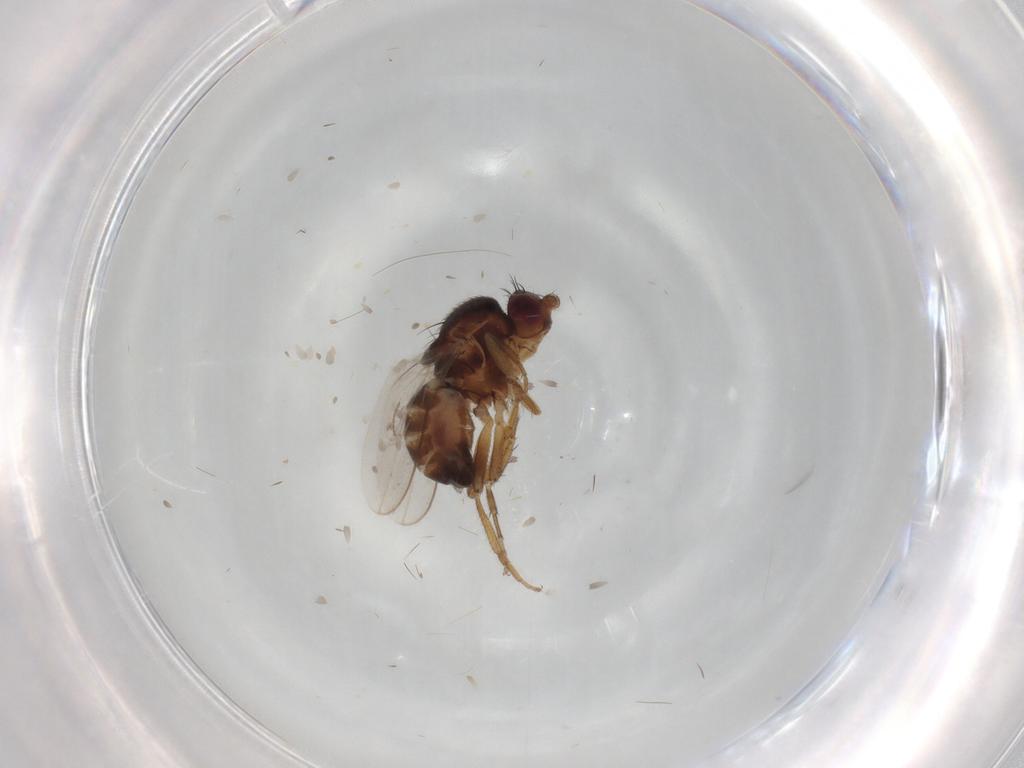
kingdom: Animalia
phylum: Arthropoda
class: Insecta
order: Diptera
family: Sphaeroceridae
